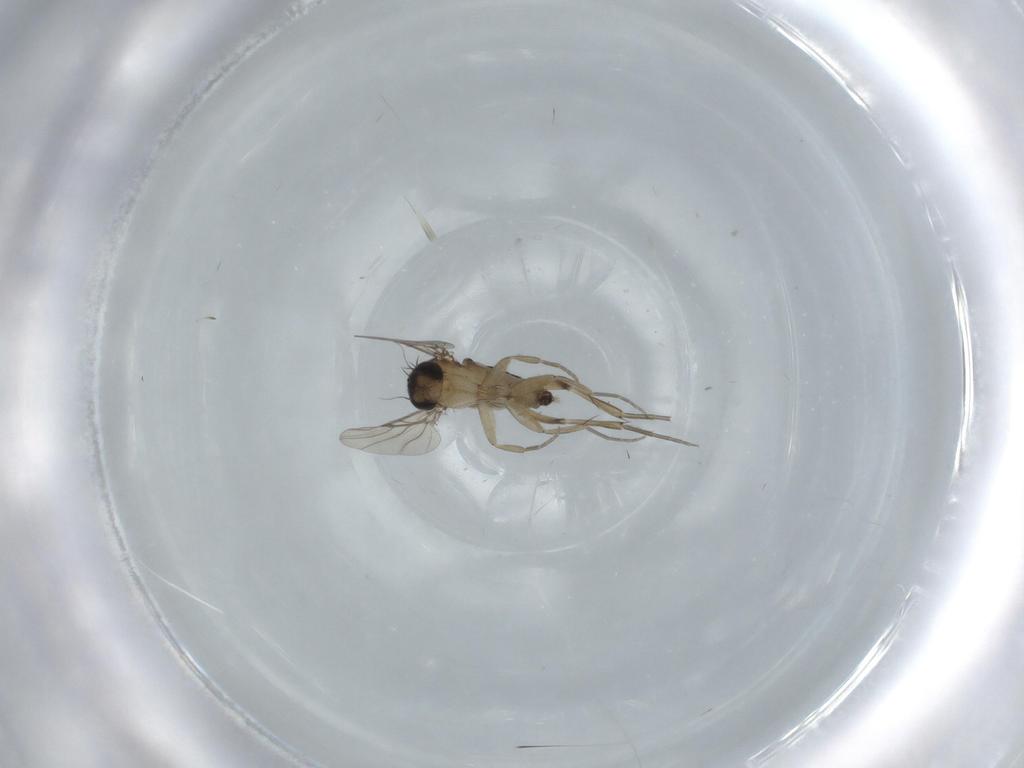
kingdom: Animalia
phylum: Arthropoda
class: Insecta
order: Diptera
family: Phoridae
